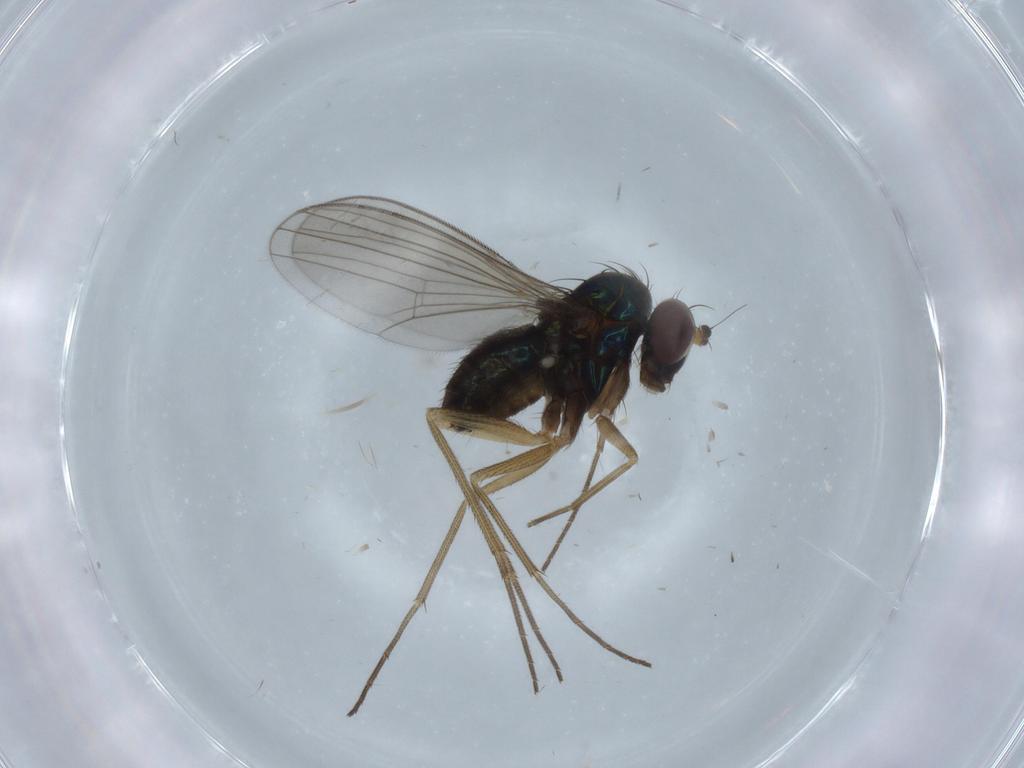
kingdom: Animalia
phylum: Arthropoda
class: Insecta
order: Diptera
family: Dolichopodidae
